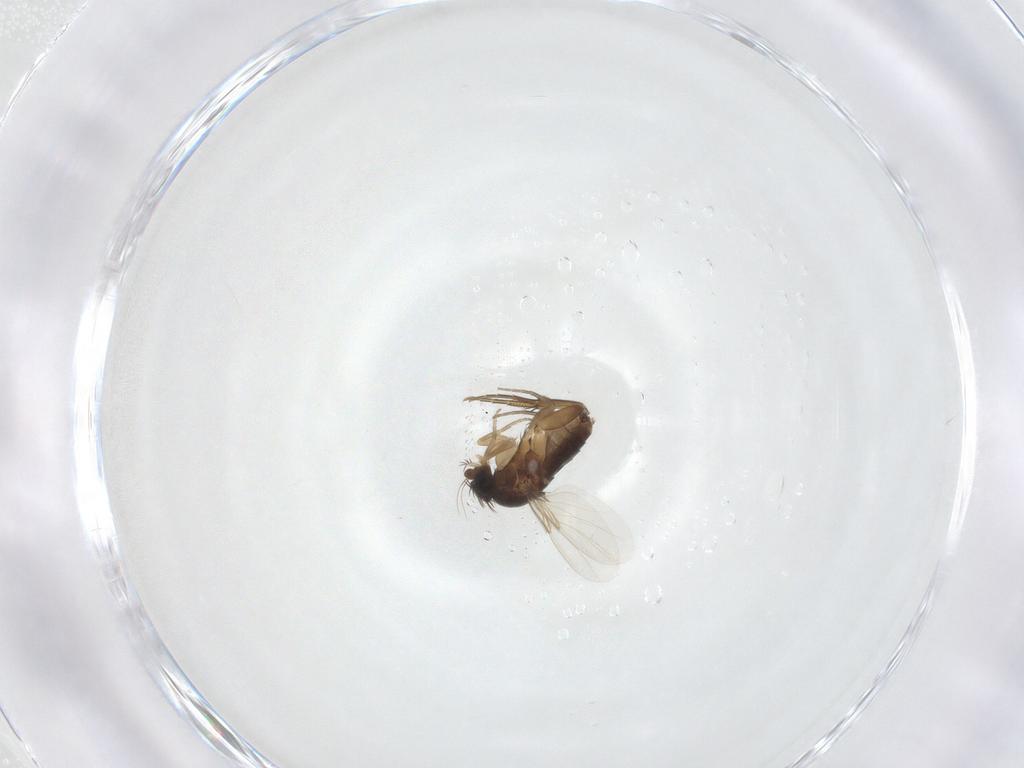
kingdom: Animalia
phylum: Arthropoda
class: Insecta
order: Diptera
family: Phoridae
